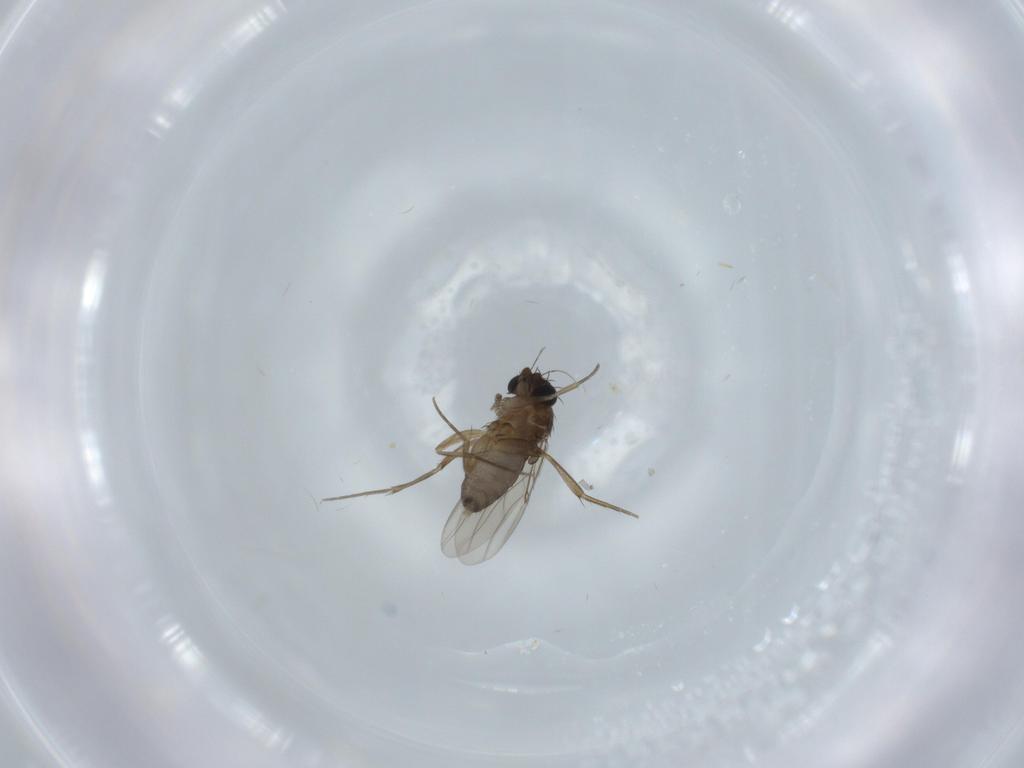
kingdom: Animalia
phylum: Arthropoda
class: Insecta
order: Diptera
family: Phoridae
